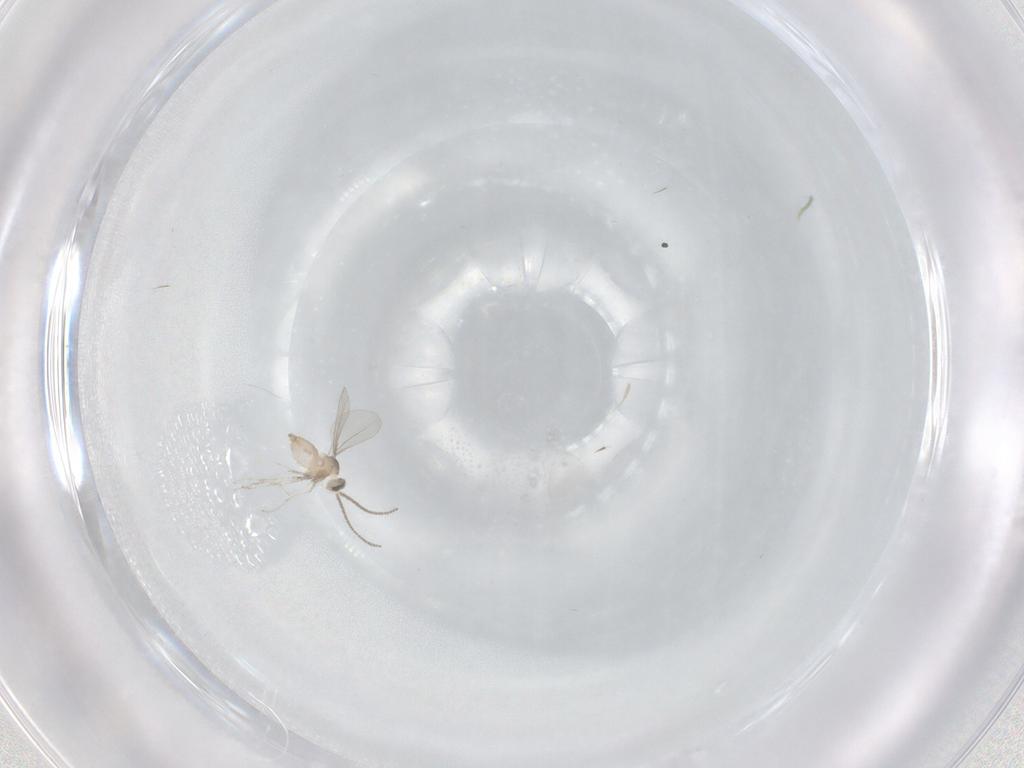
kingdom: Animalia
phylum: Arthropoda
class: Insecta
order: Diptera
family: Cecidomyiidae
